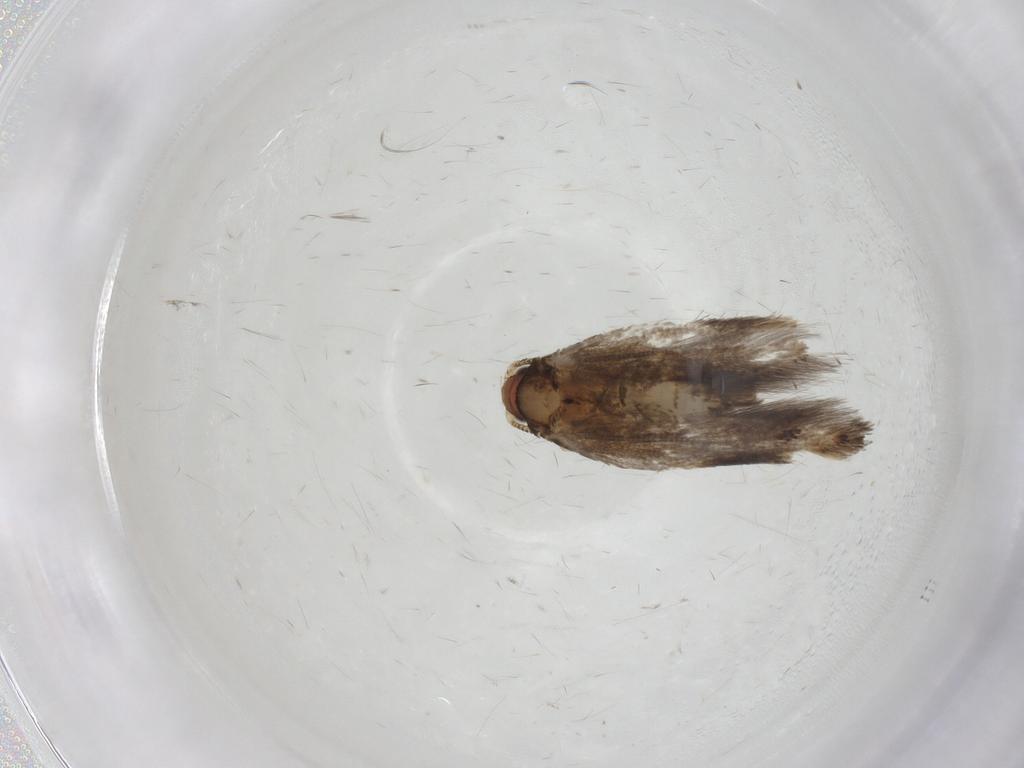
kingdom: Animalia
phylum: Arthropoda
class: Insecta
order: Lepidoptera
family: Tineidae
